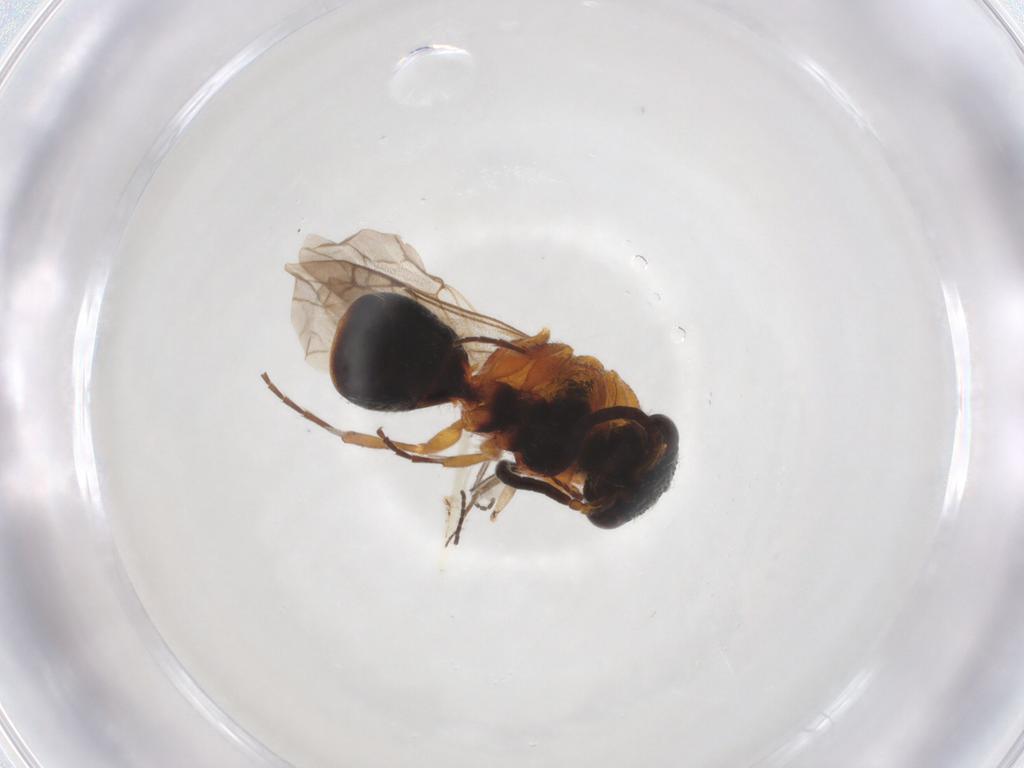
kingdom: Animalia
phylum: Arthropoda
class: Insecta
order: Hymenoptera
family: Mutillidae
